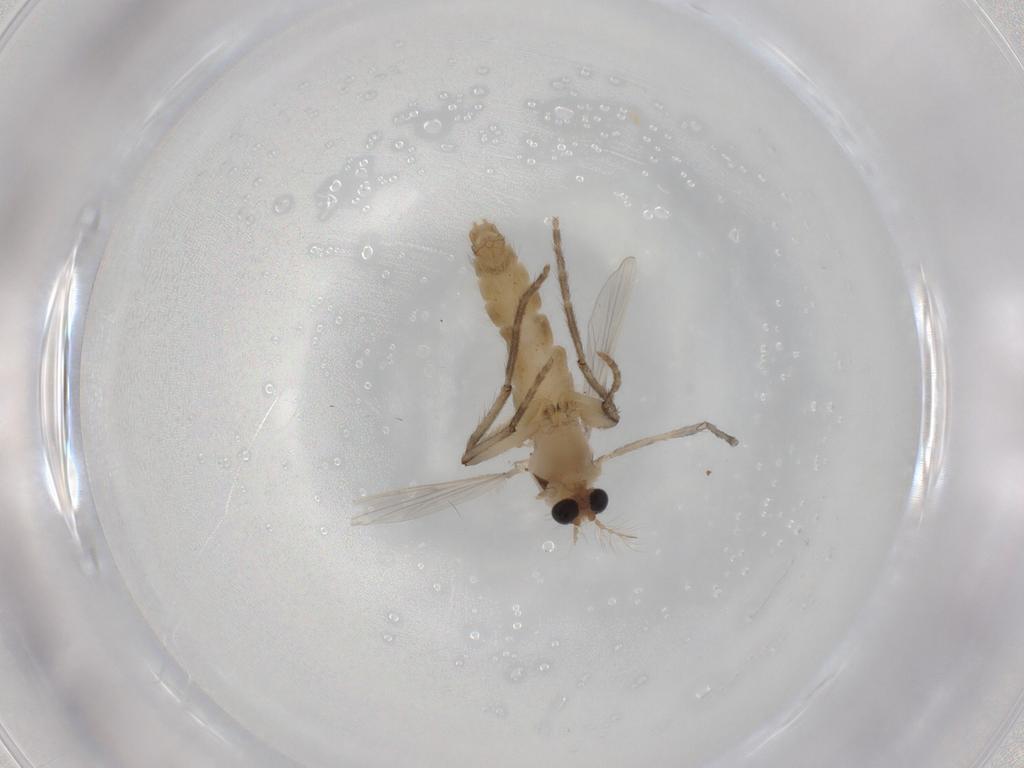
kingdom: Animalia
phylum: Arthropoda
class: Insecta
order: Diptera
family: Chironomidae
